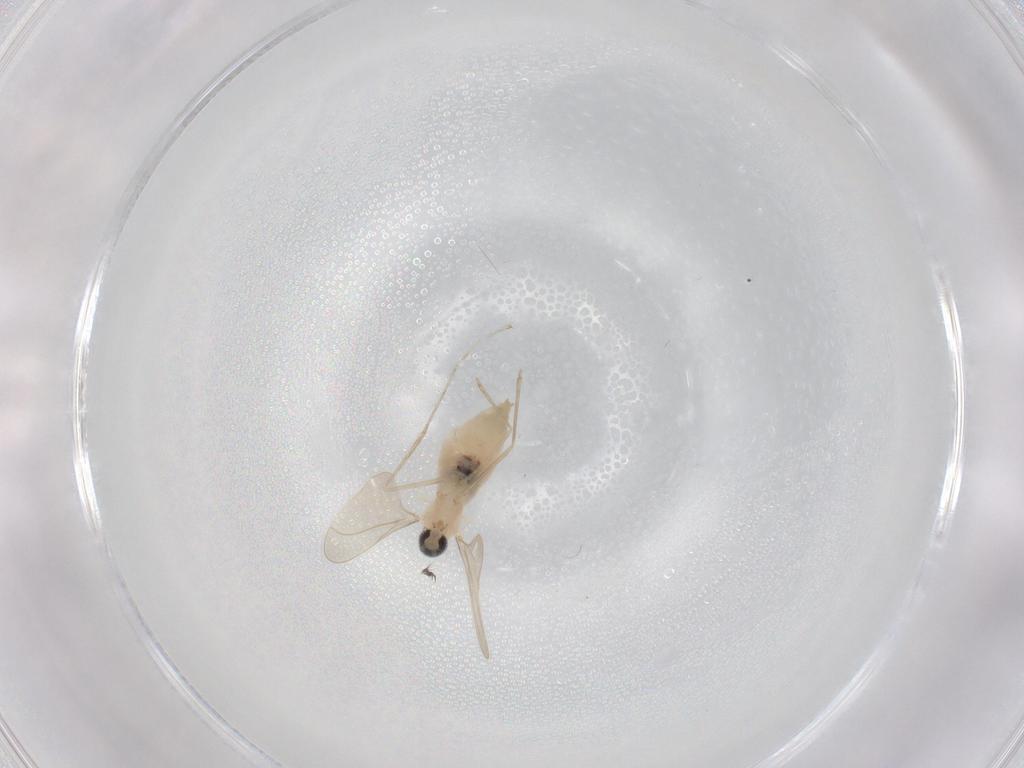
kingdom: Animalia
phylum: Arthropoda
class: Insecta
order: Diptera
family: Cecidomyiidae
